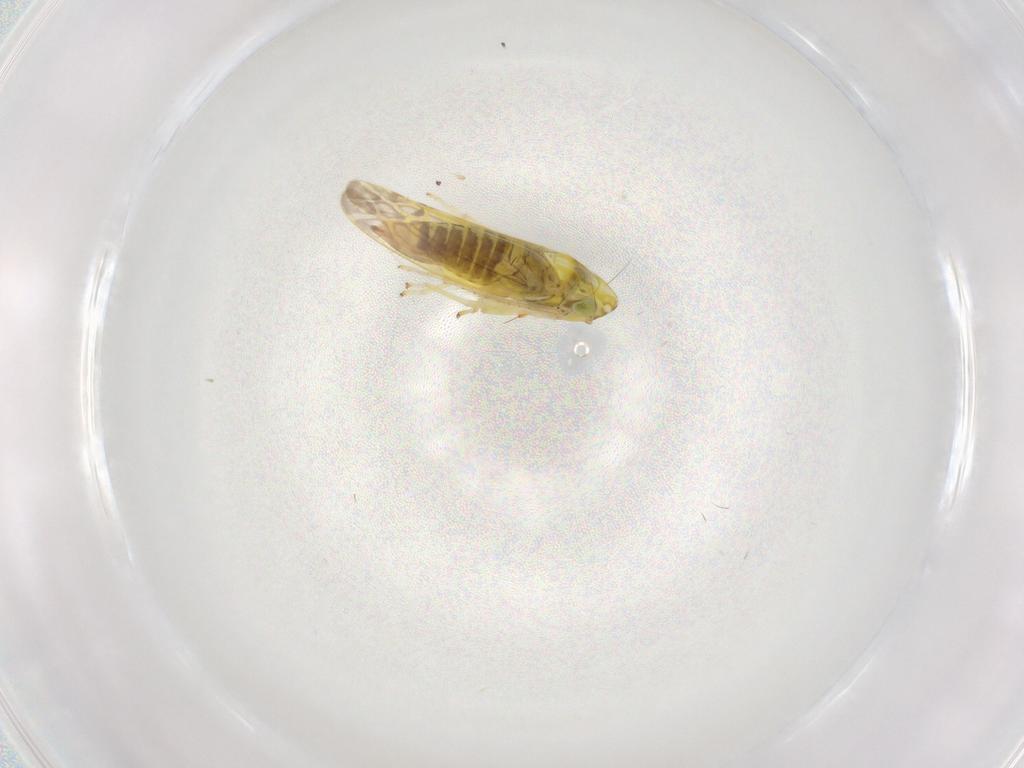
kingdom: Animalia
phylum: Arthropoda
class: Insecta
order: Hemiptera
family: Cicadellidae
